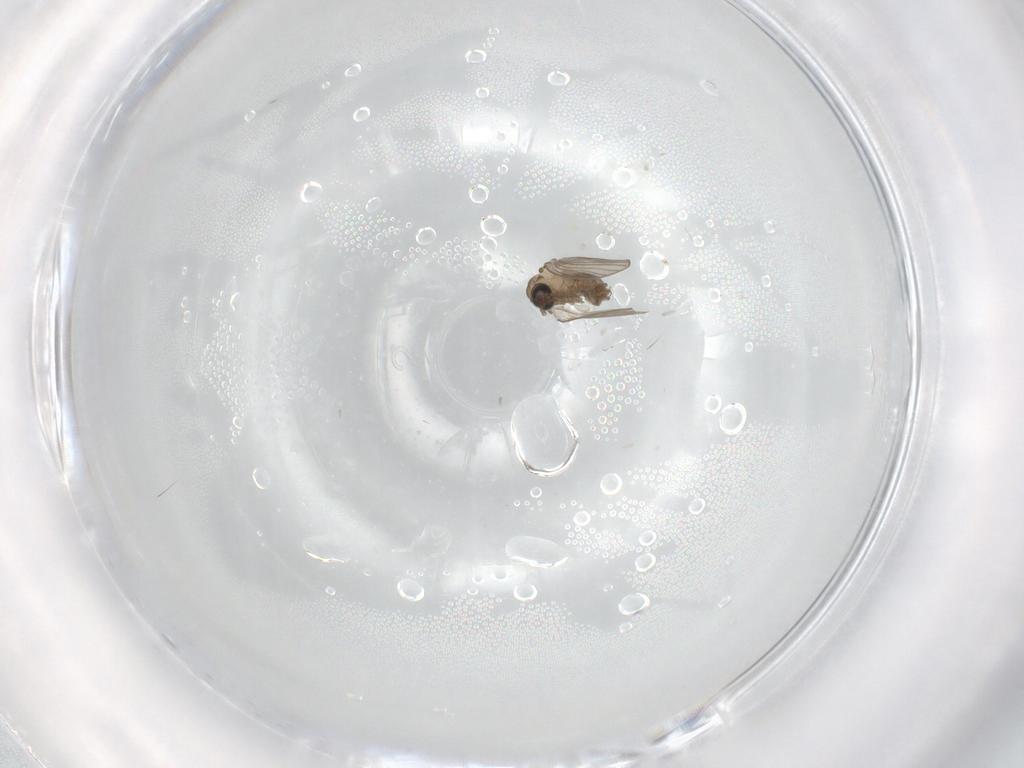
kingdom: Animalia
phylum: Arthropoda
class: Insecta
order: Diptera
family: Psychodidae
